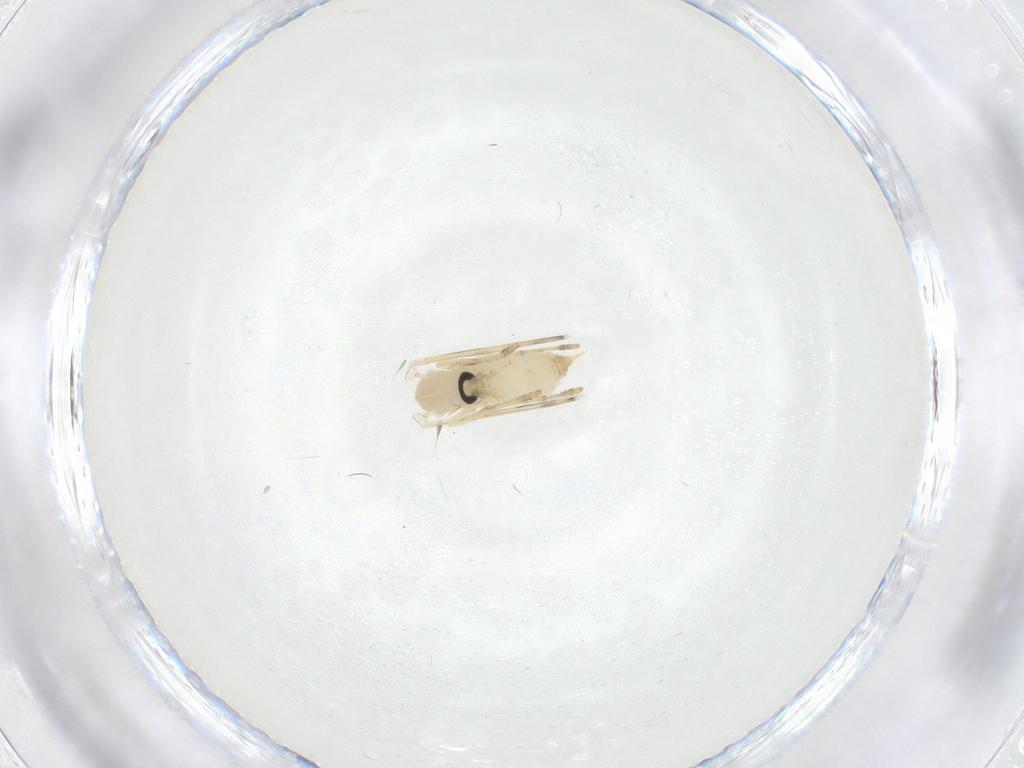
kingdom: Animalia
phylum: Arthropoda
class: Insecta
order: Diptera
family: Psychodidae
